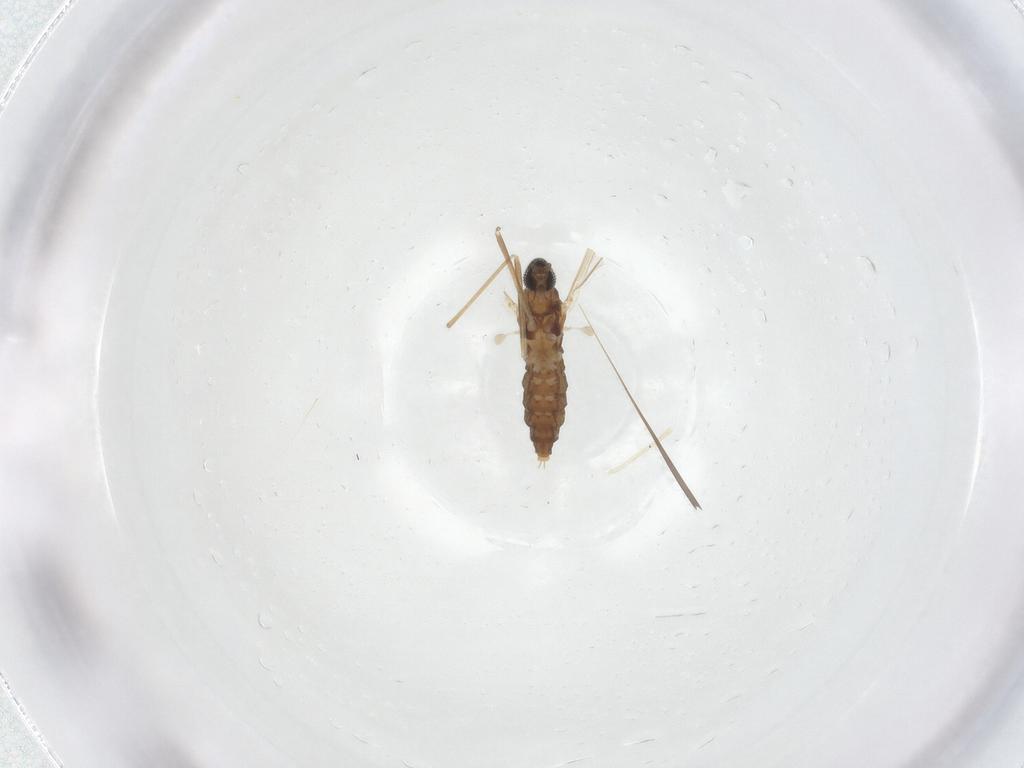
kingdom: Animalia
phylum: Arthropoda
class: Insecta
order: Diptera
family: Cecidomyiidae
